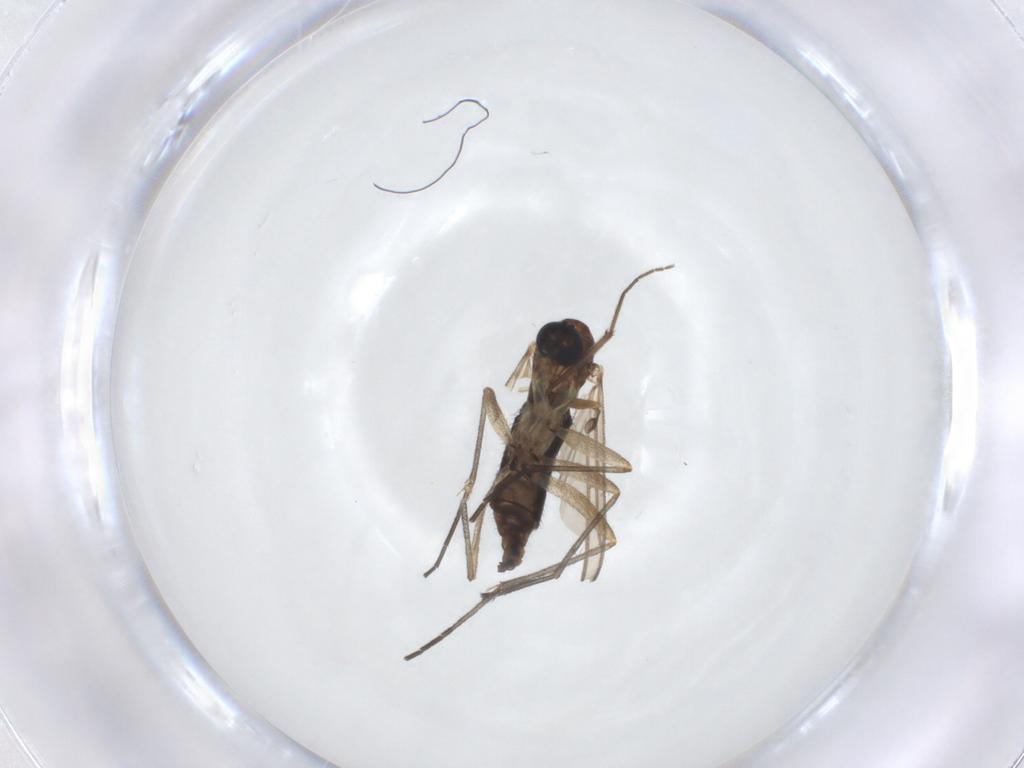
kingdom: Animalia
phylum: Arthropoda
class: Insecta
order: Diptera
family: Sciaridae
